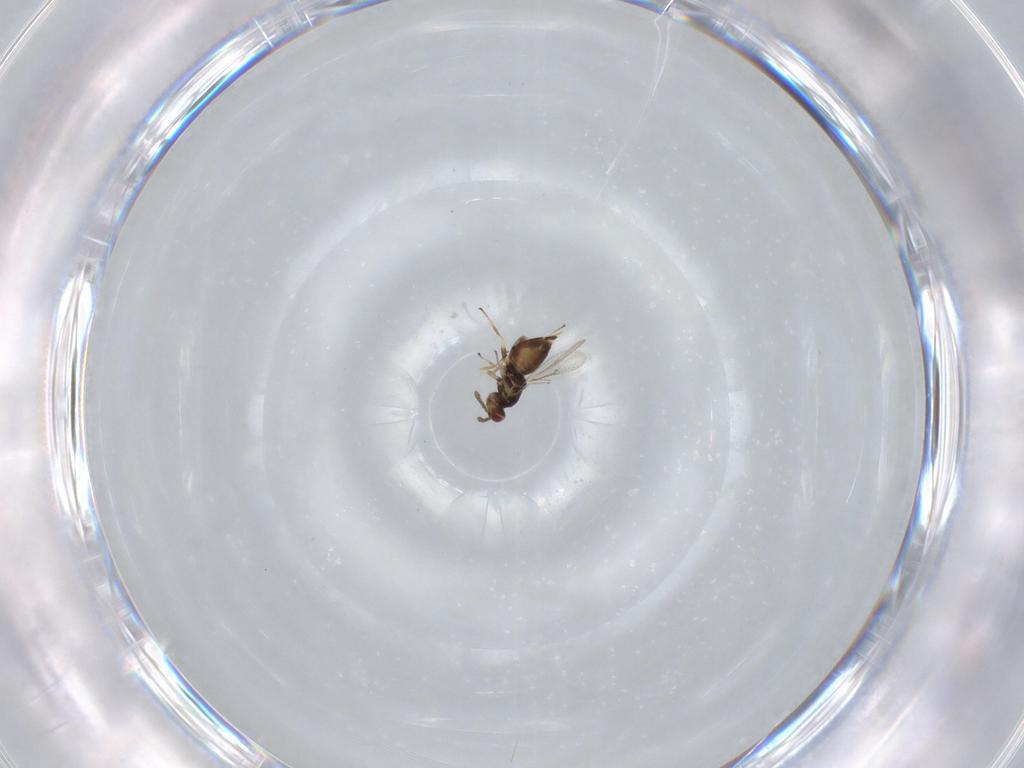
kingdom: Animalia
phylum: Arthropoda
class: Insecta
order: Hymenoptera
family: Eulophidae
